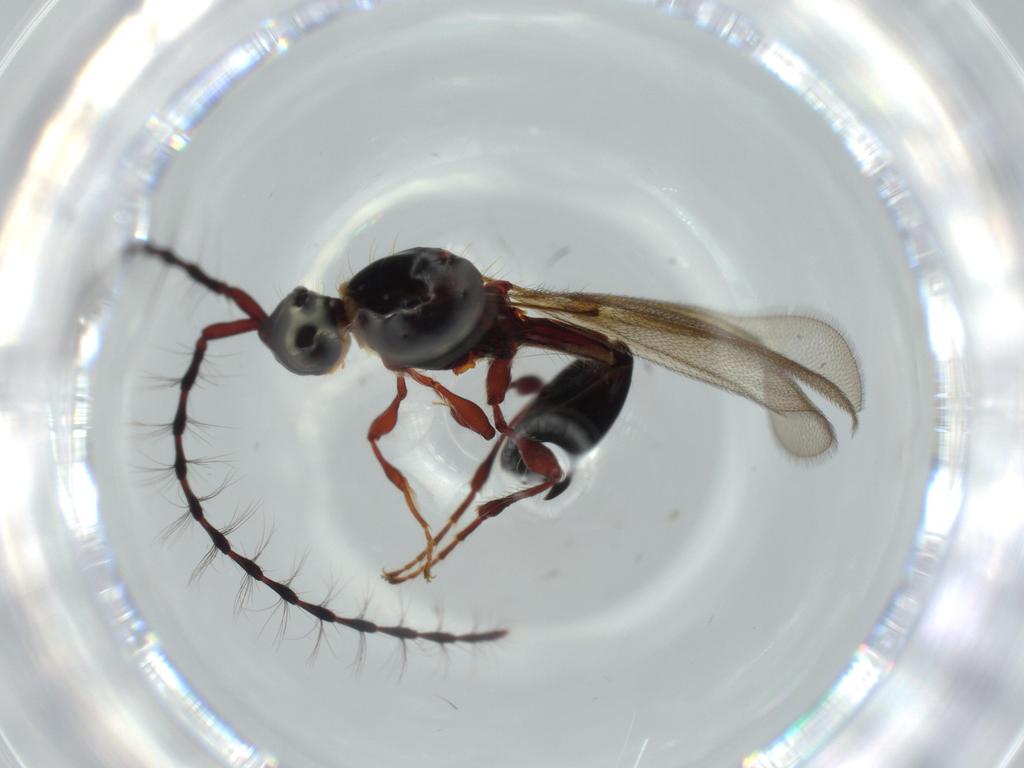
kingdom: Animalia
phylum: Arthropoda
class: Insecta
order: Hymenoptera
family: Diapriidae
